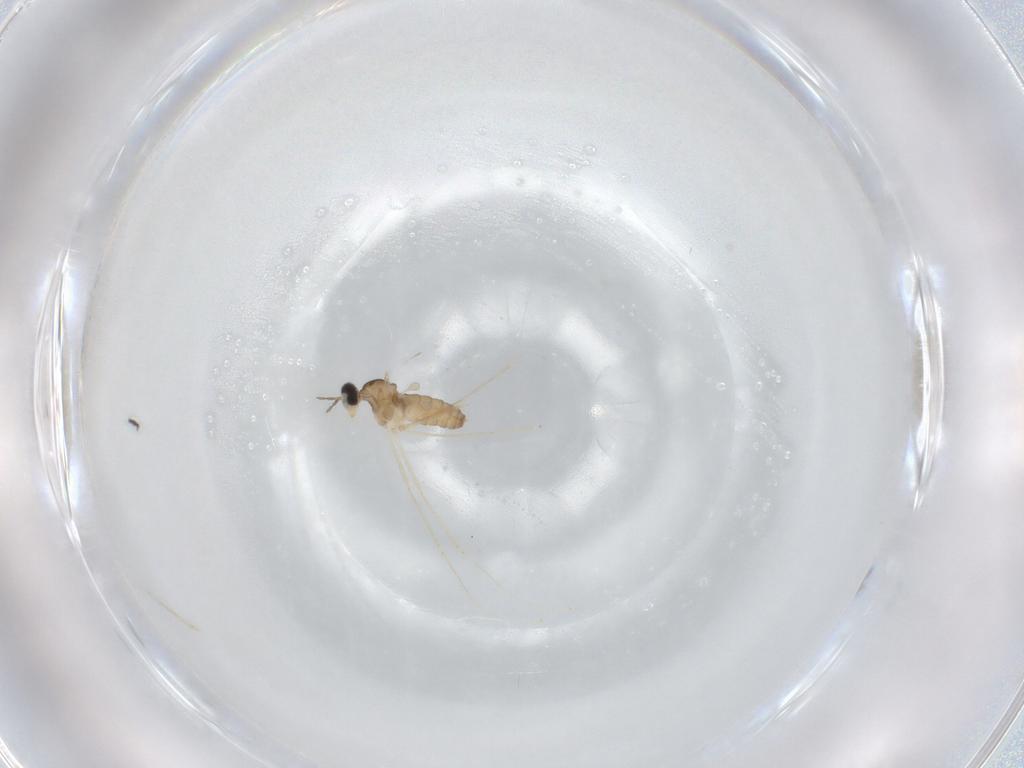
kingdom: Animalia
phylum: Arthropoda
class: Insecta
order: Diptera
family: Cecidomyiidae
